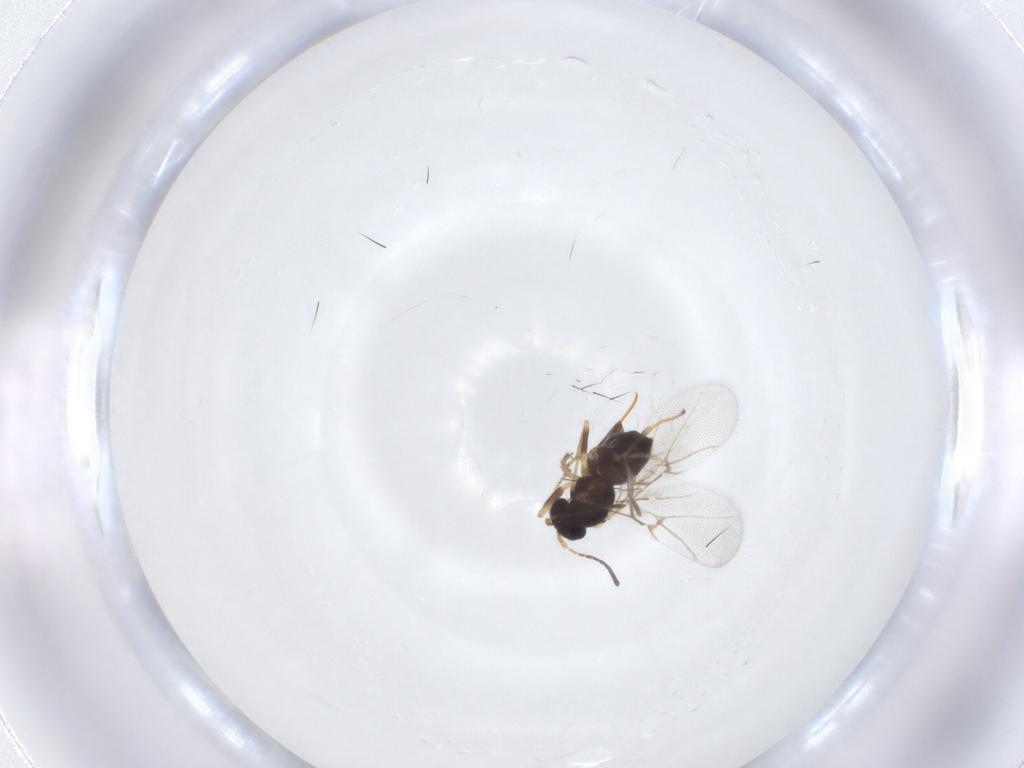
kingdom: Animalia
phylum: Arthropoda
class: Insecta
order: Hymenoptera
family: Cynipidae
